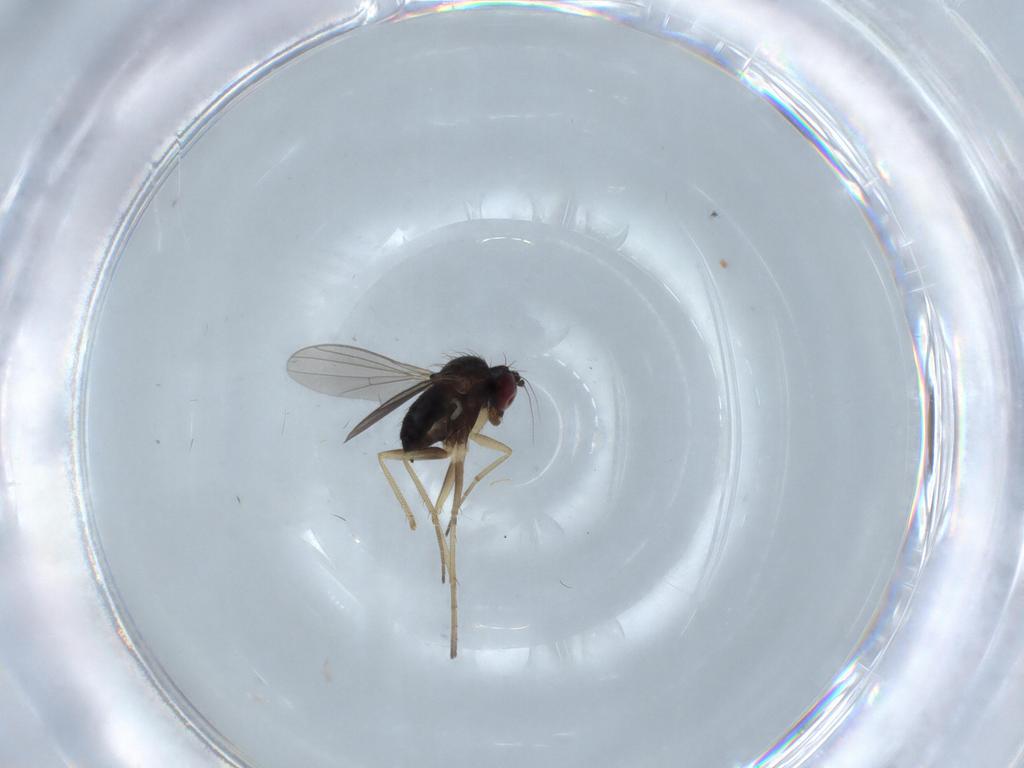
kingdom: Animalia
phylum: Arthropoda
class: Insecta
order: Diptera
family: Dolichopodidae
